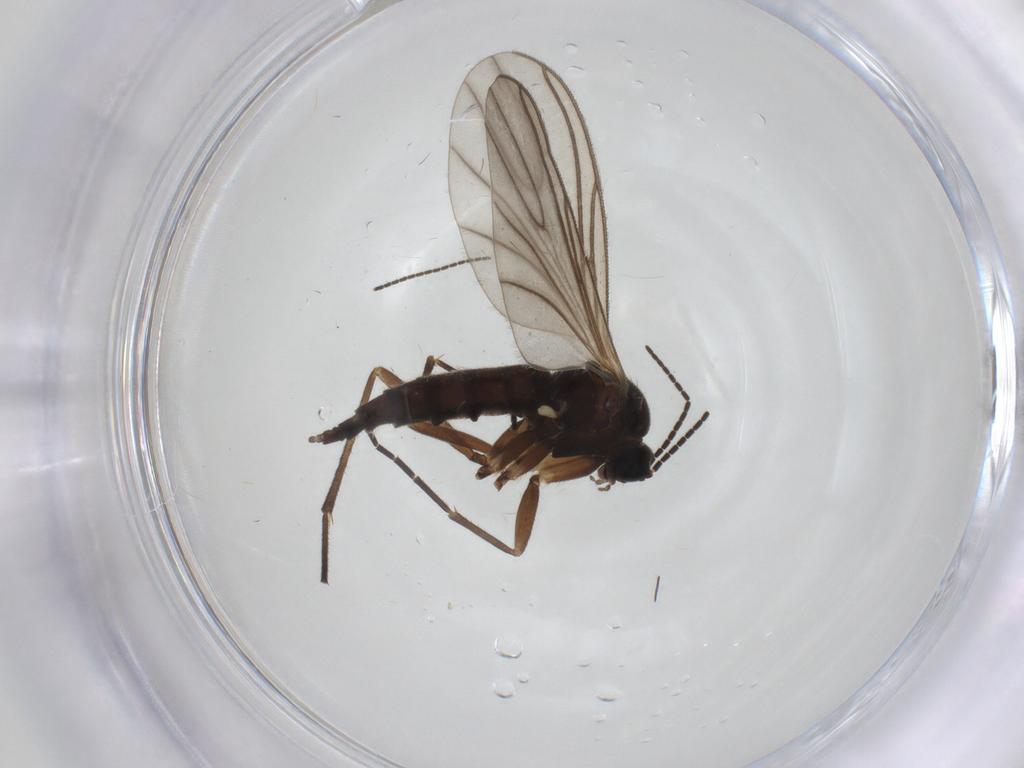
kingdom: Animalia
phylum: Arthropoda
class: Insecta
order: Diptera
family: Sciaridae
